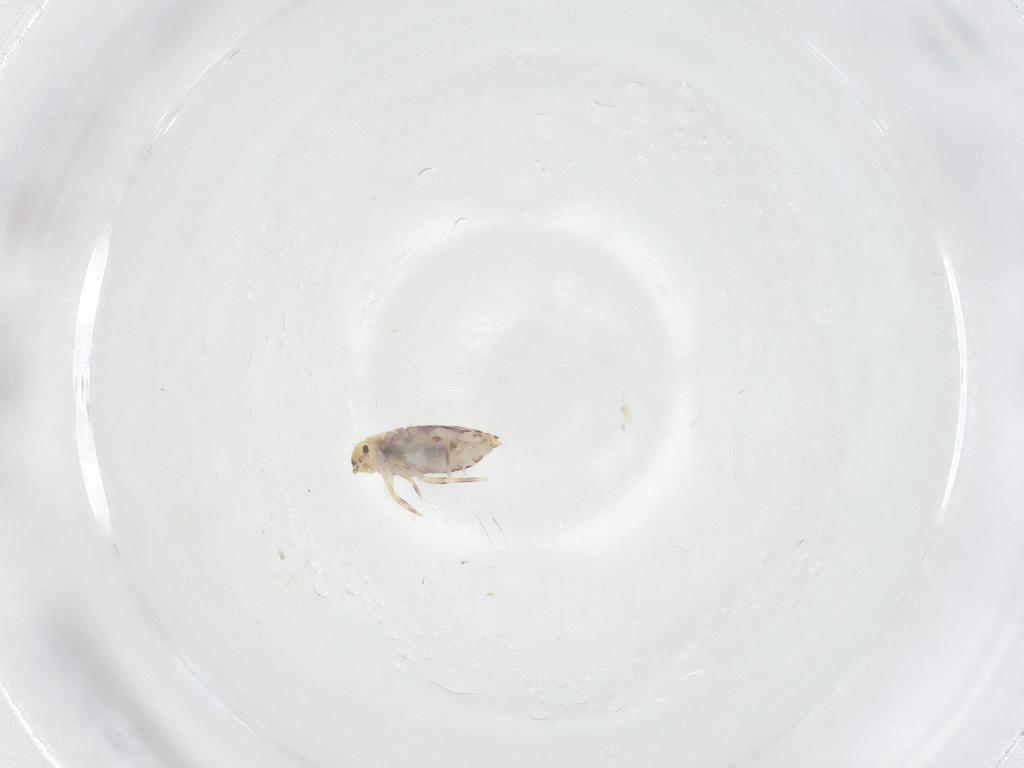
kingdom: Animalia
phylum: Arthropoda
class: Collembola
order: Entomobryomorpha
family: Entomobryidae
